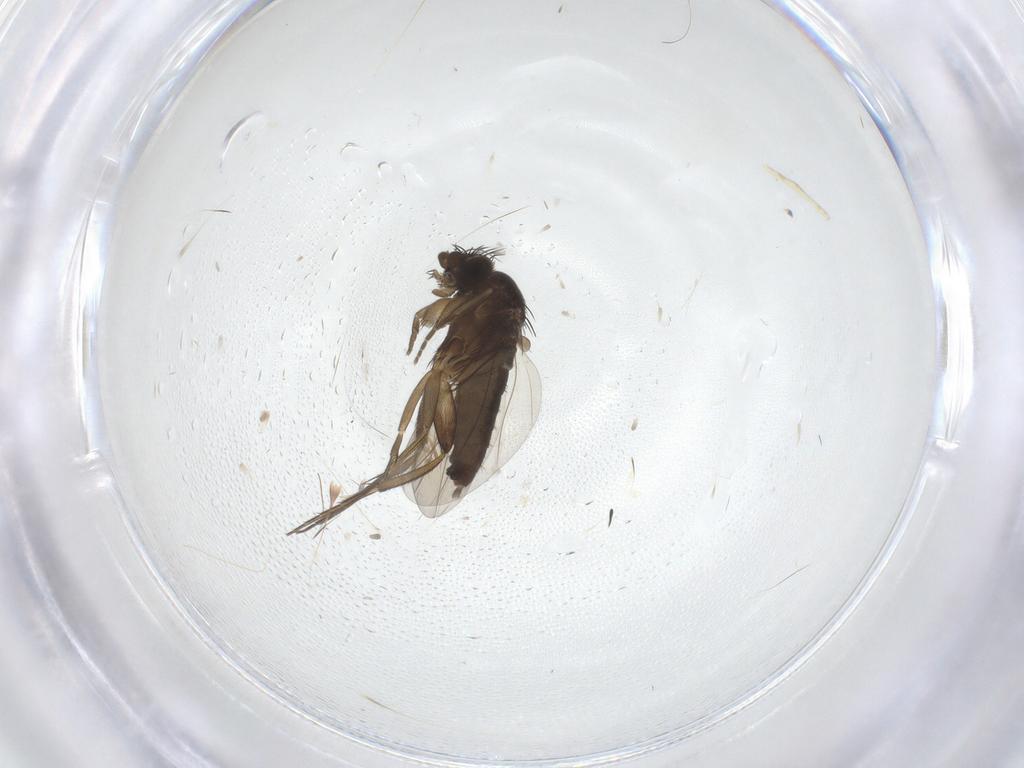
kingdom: Animalia
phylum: Arthropoda
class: Insecta
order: Diptera
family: Phoridae
